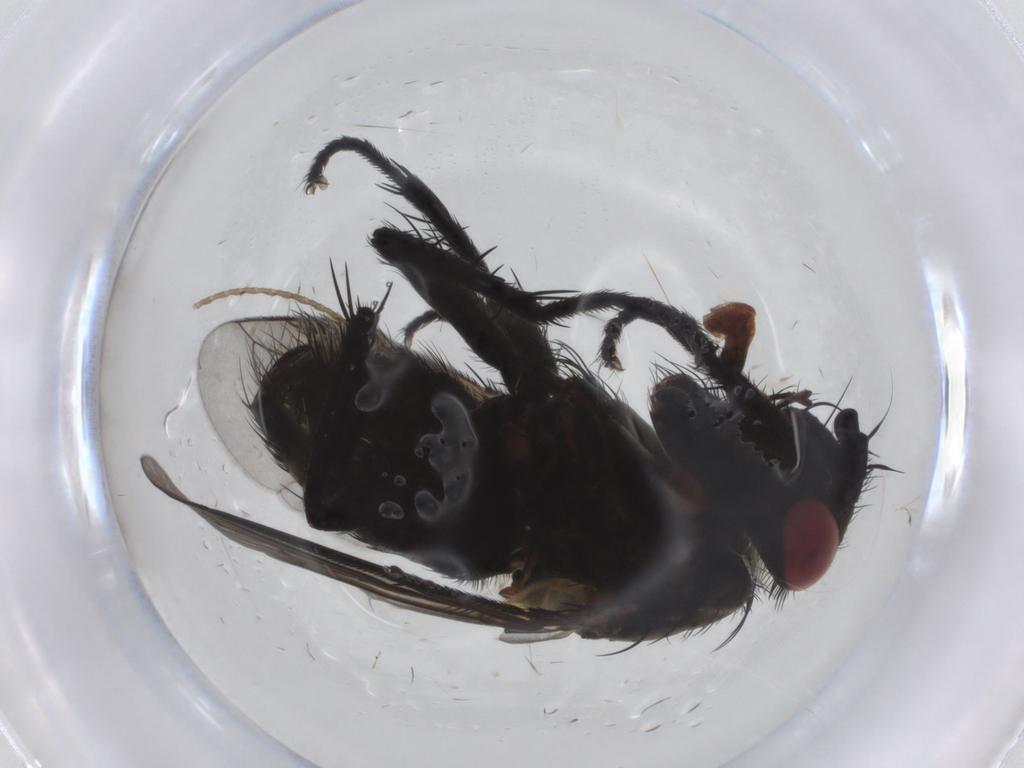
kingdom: Animalia
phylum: Arthropoda
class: Insecta
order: Diptera
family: Tachinidae
